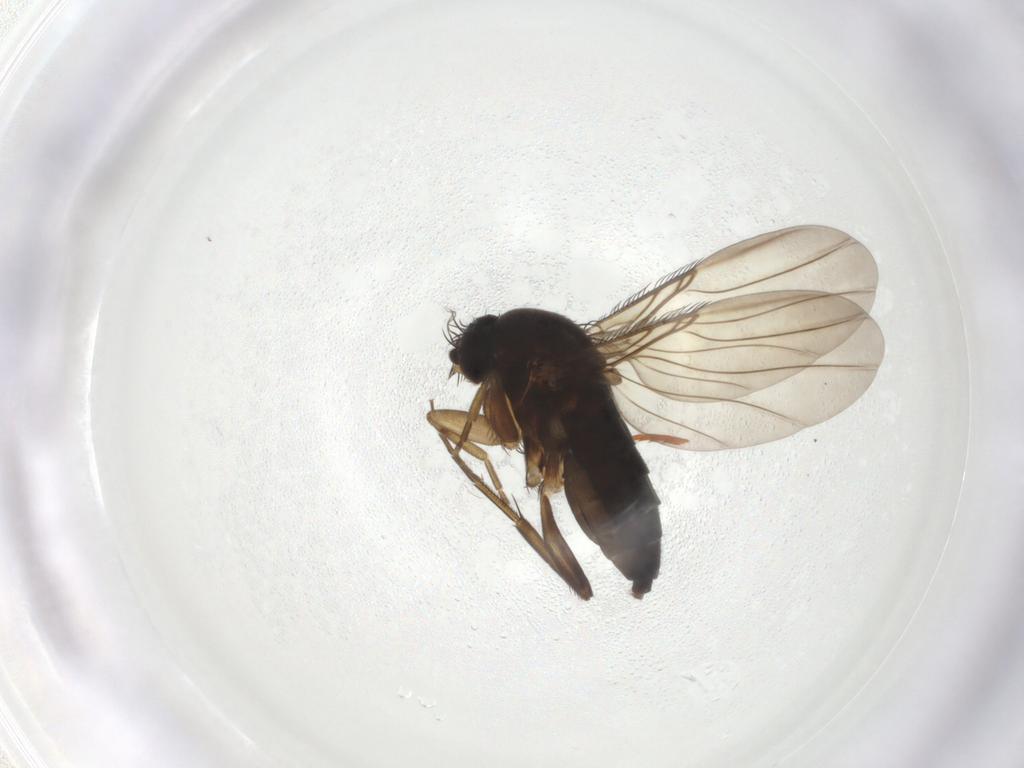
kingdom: Animalia
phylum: Arthropoda
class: Insecta
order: Diptera
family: Phoridae
